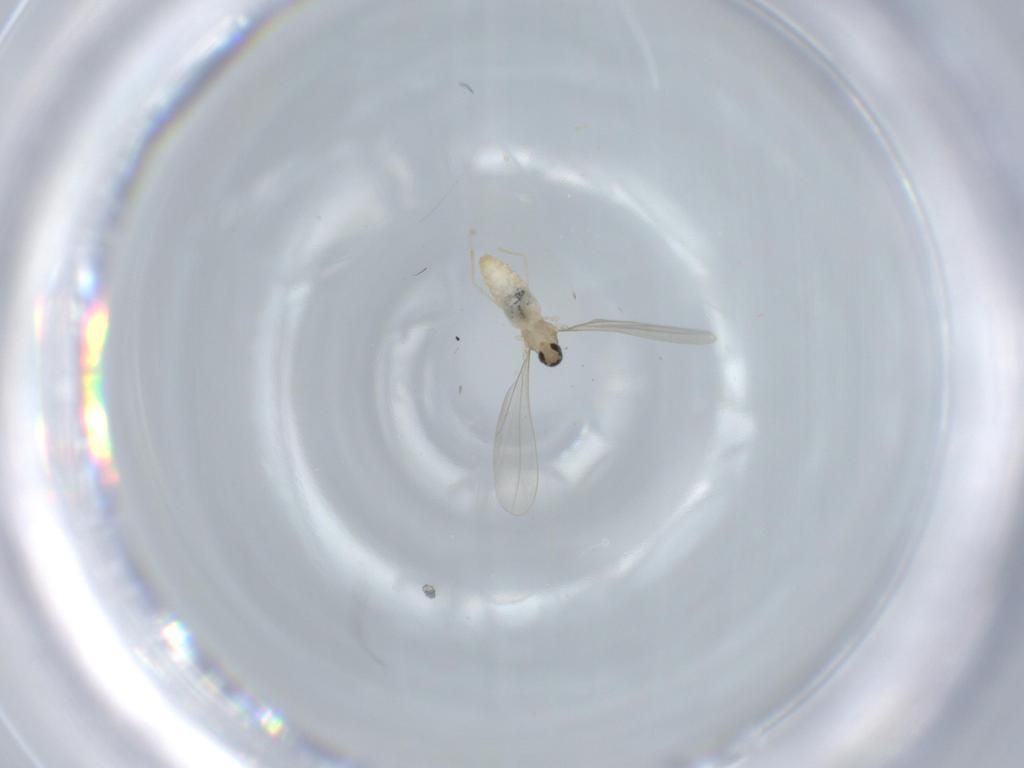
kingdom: Animalia
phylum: Arthropoda
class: Insecta
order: Diptera
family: Cecidomyiidae
